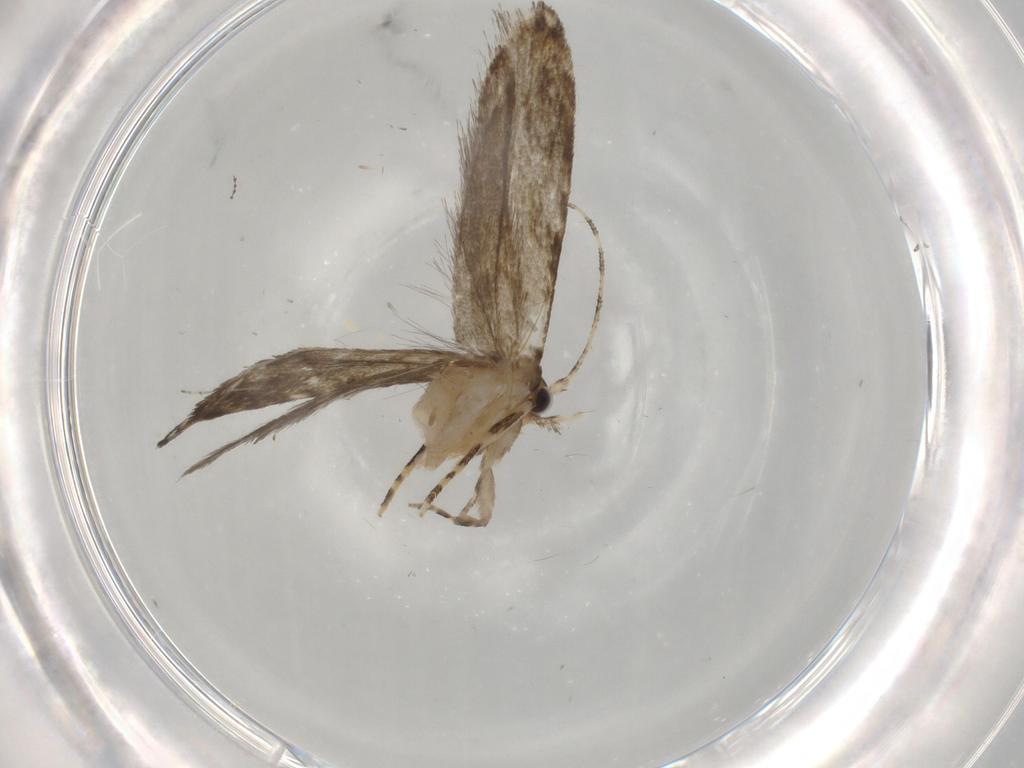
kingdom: Animalia
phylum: Arthropoda
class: Insecta
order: Lepidoptera
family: Tineidae
